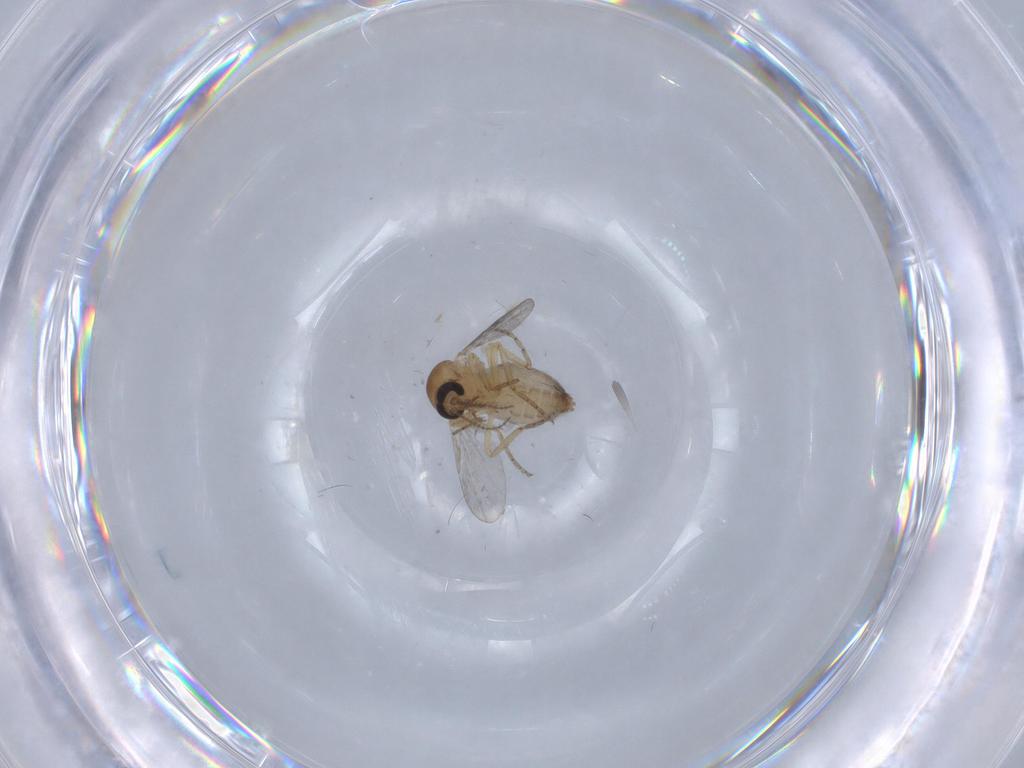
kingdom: Animalia
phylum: Arthropoda
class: Insecta
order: Diptera
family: Ceratopogonidae
